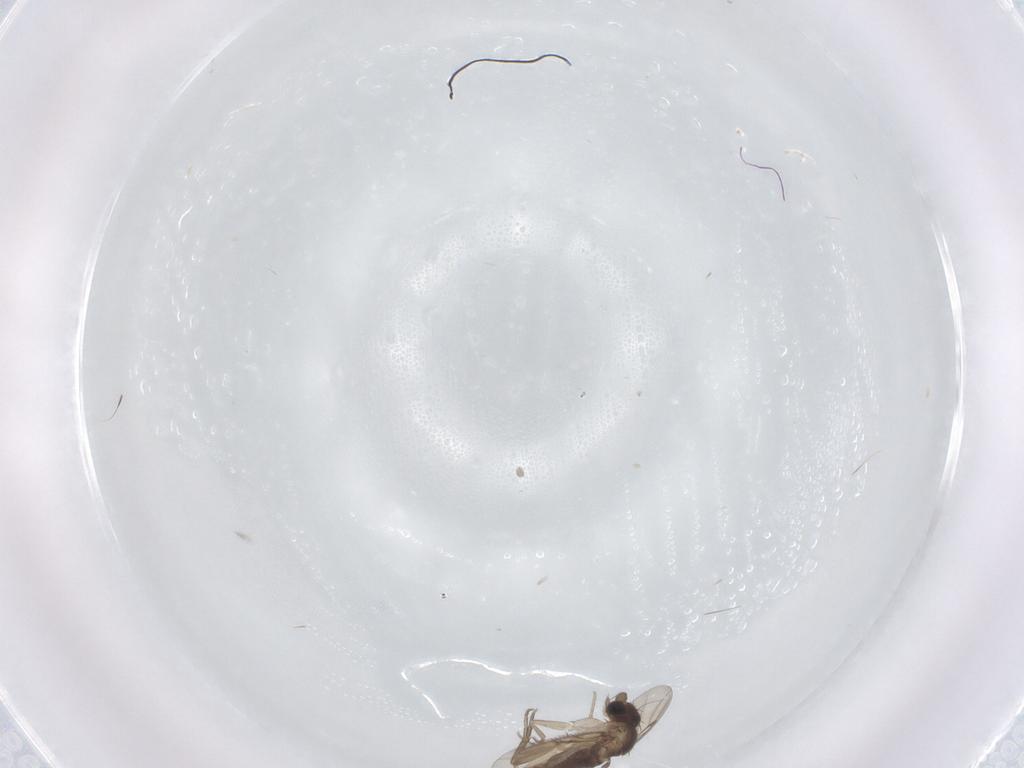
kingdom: Animalia
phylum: Arthropoda
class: Insecta
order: Diptera
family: Phoridae
